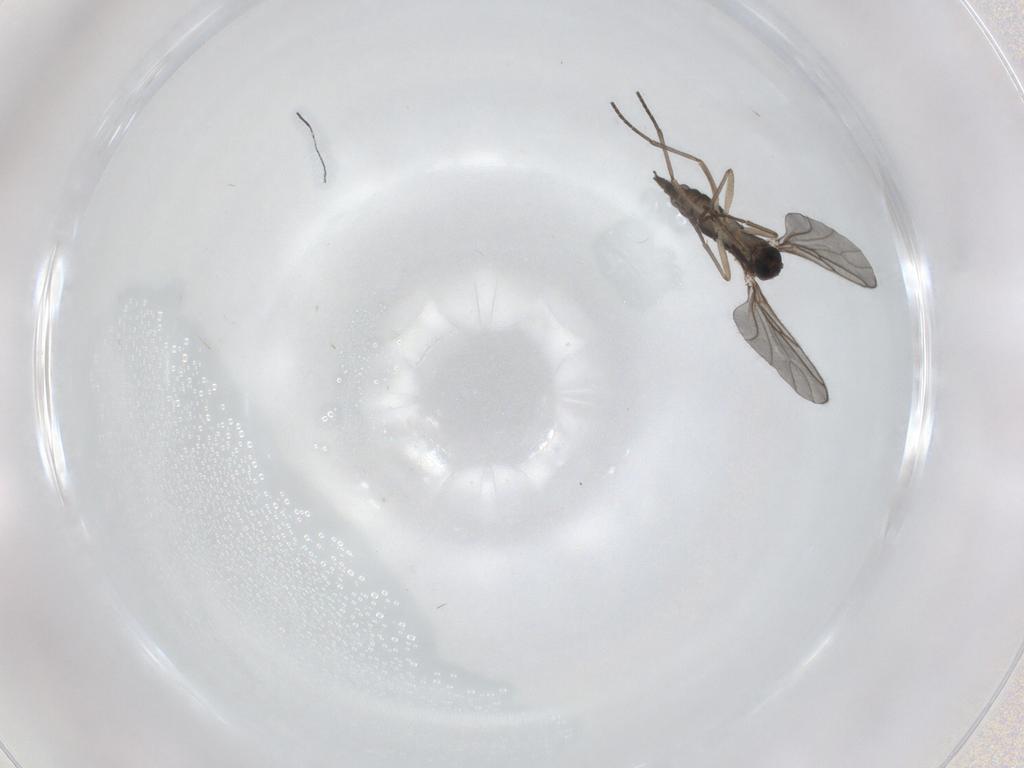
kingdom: Animalia
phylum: Arthropoda
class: Insecta
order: Diptera
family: Sciaridae
